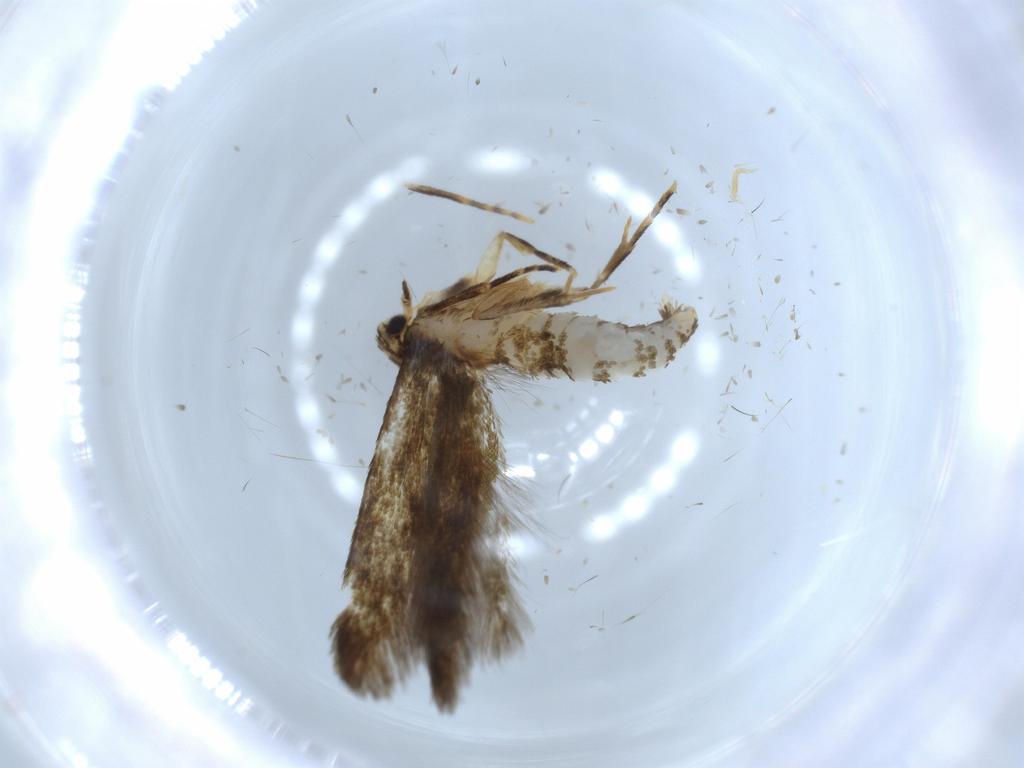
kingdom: Animalia
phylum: Arthropoda
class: Insecta
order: Lepidoptera
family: Tineidae
